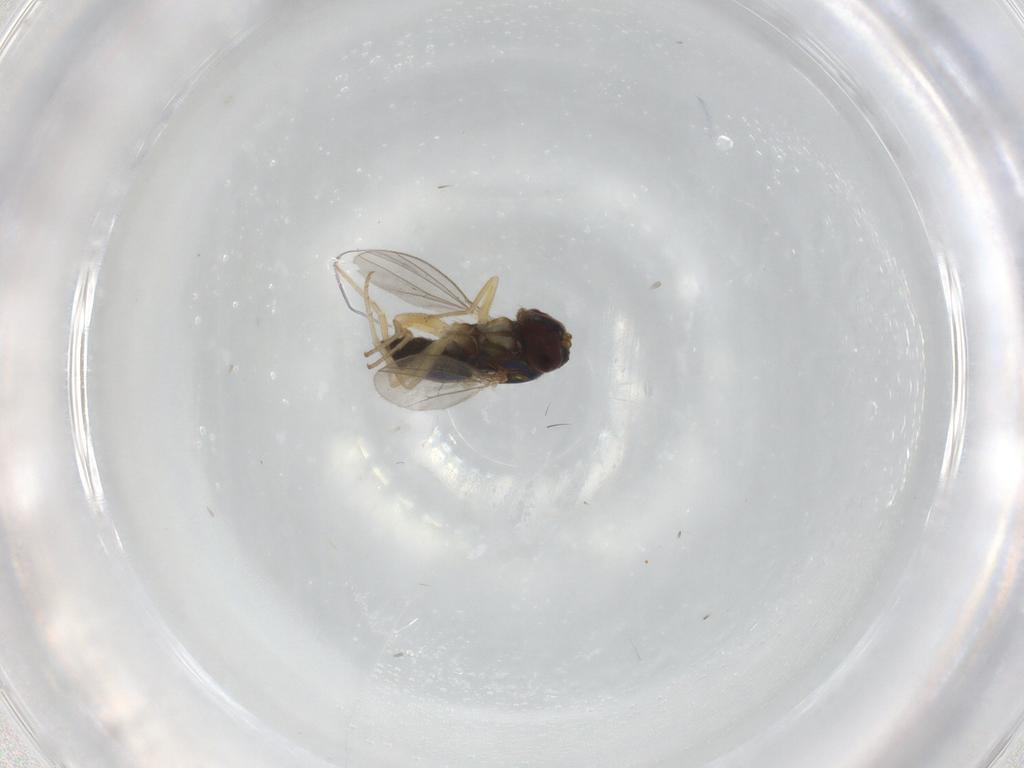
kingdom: Animalia
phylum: Arthropoda
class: Insecta
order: Diptera
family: Dolichopodidae
